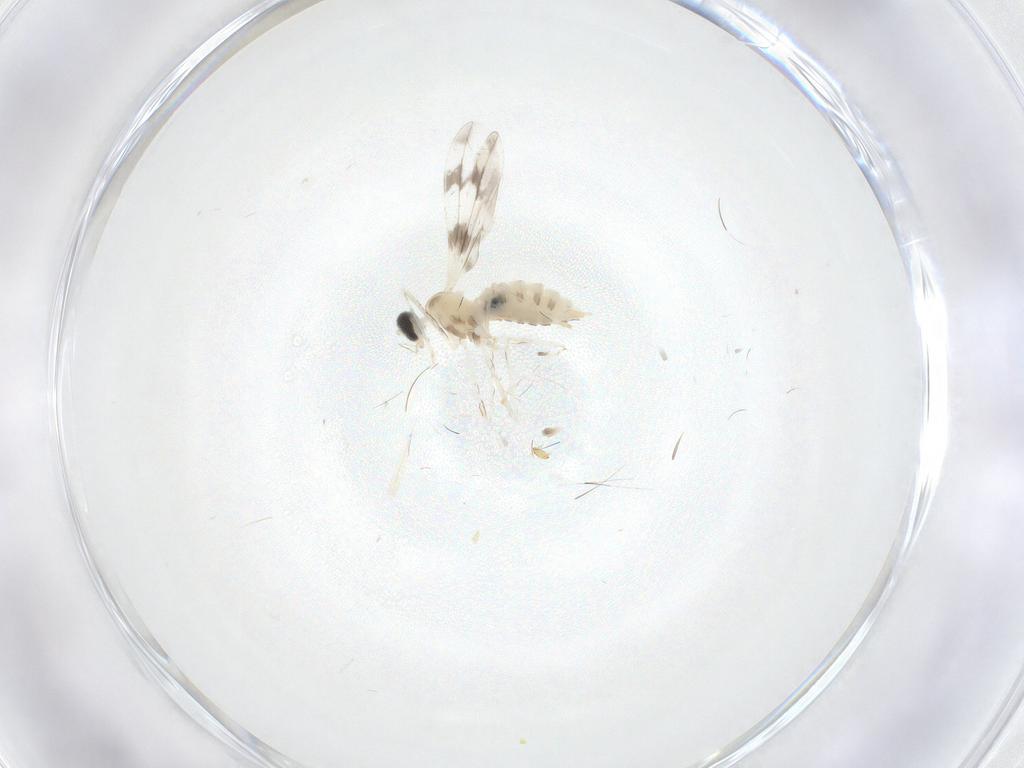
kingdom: Animalia
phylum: Arthropoda
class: Insecta
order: Diptera
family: Cecidomyiidae
